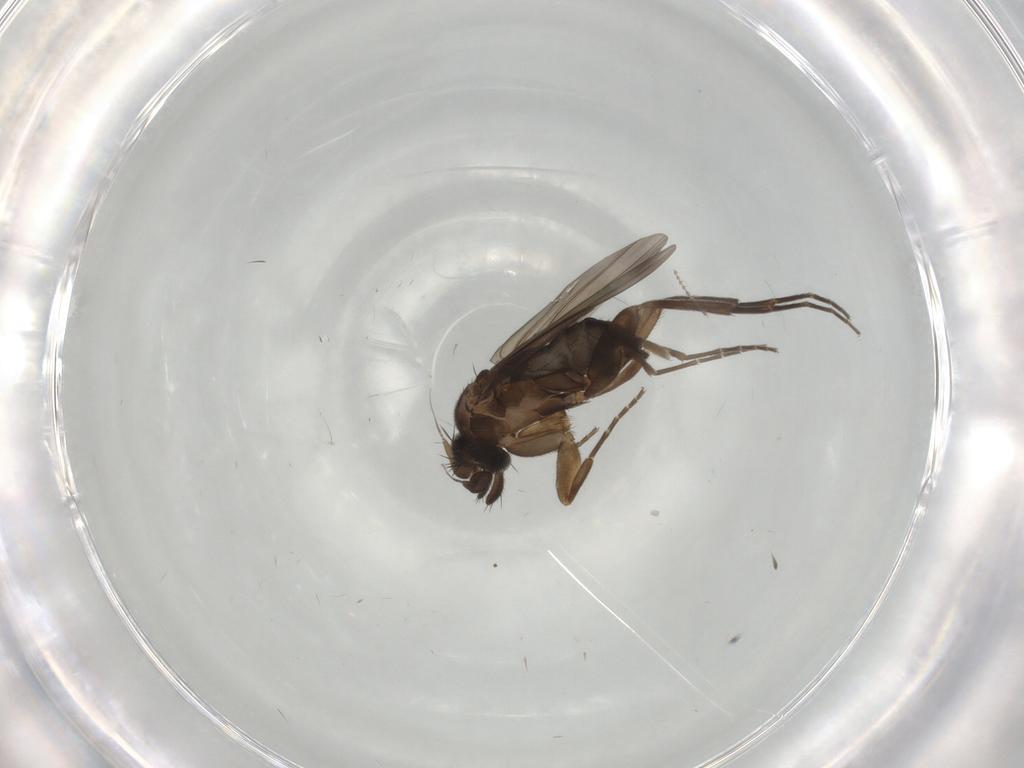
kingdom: Animalia
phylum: Arthropoda
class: Insecta
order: Diptera
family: Phoridae
